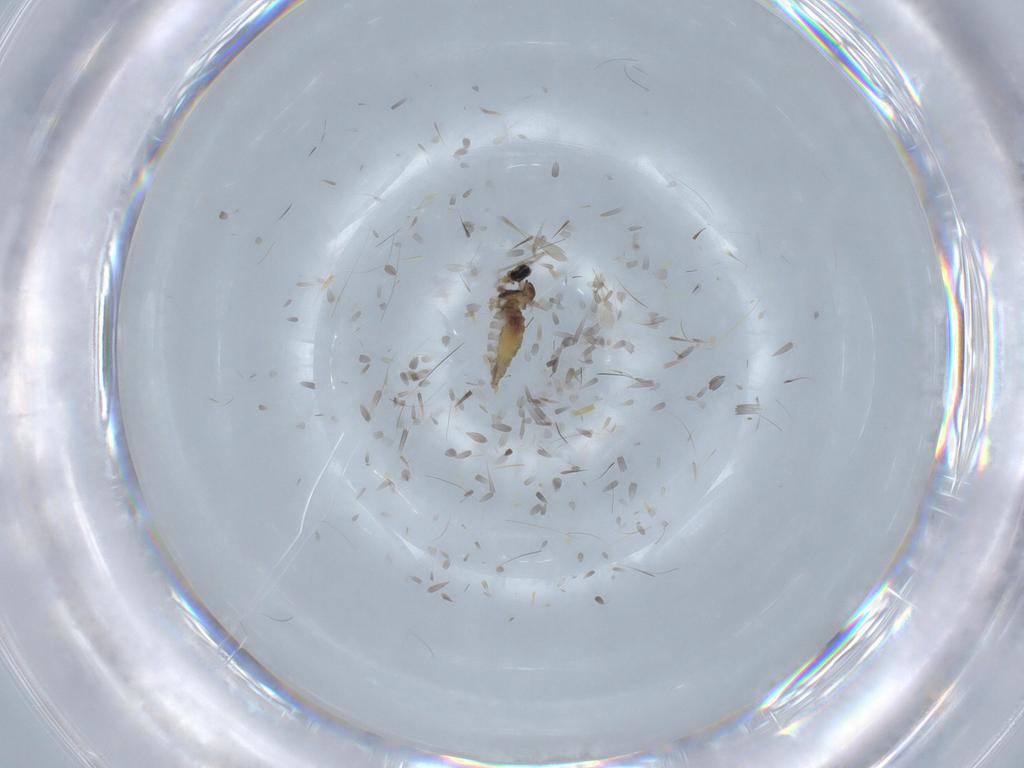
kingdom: Animalia
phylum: Arthropoda
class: Insecta
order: Diptera
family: Cecidomyiidae
